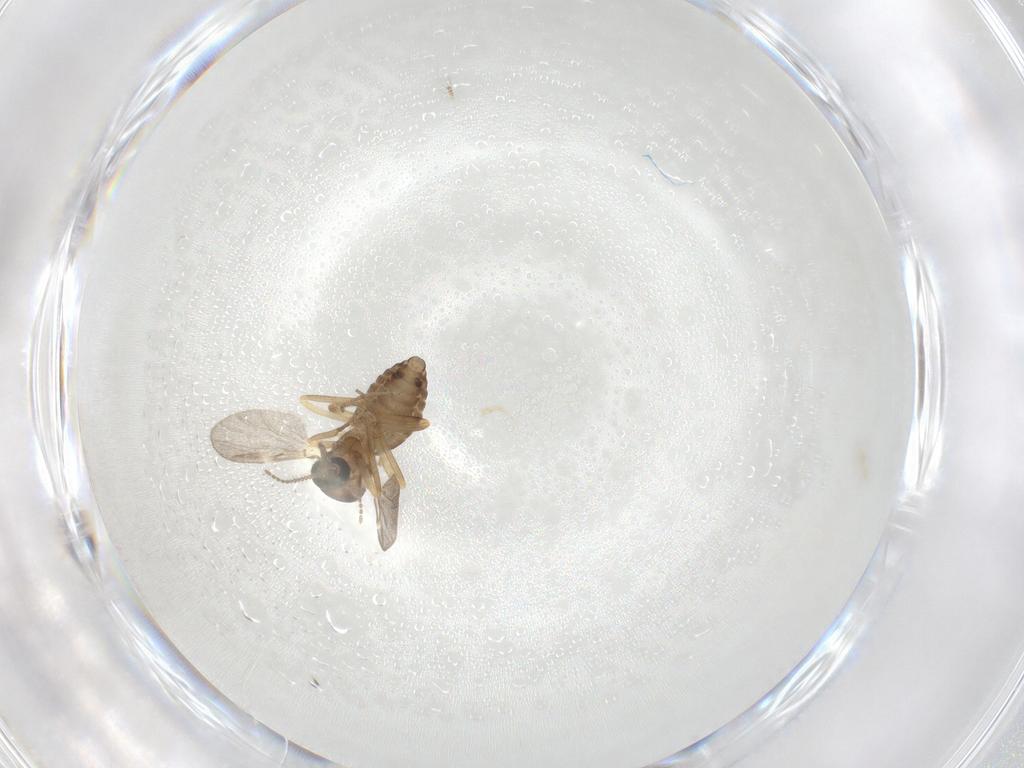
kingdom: Animalia
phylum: Arthropoda
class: Insecta
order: Diptera
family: Ceratopogonidae
